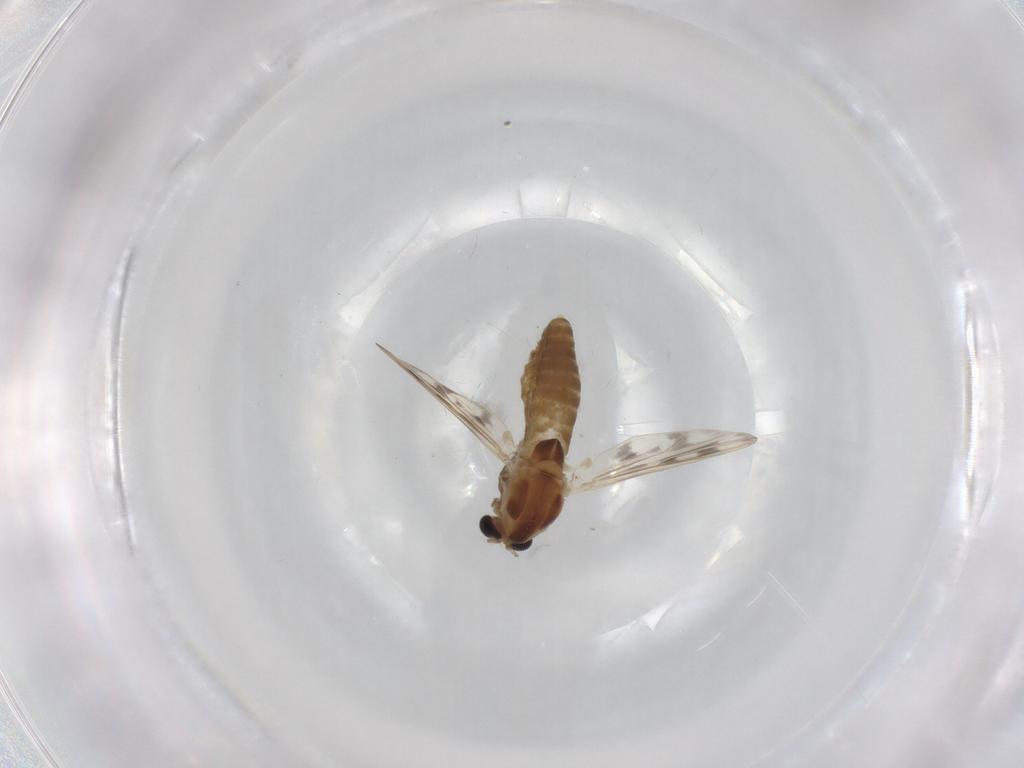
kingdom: Animalia
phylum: Arthropoda
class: Insecta
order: Diptera
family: Chironomidae
